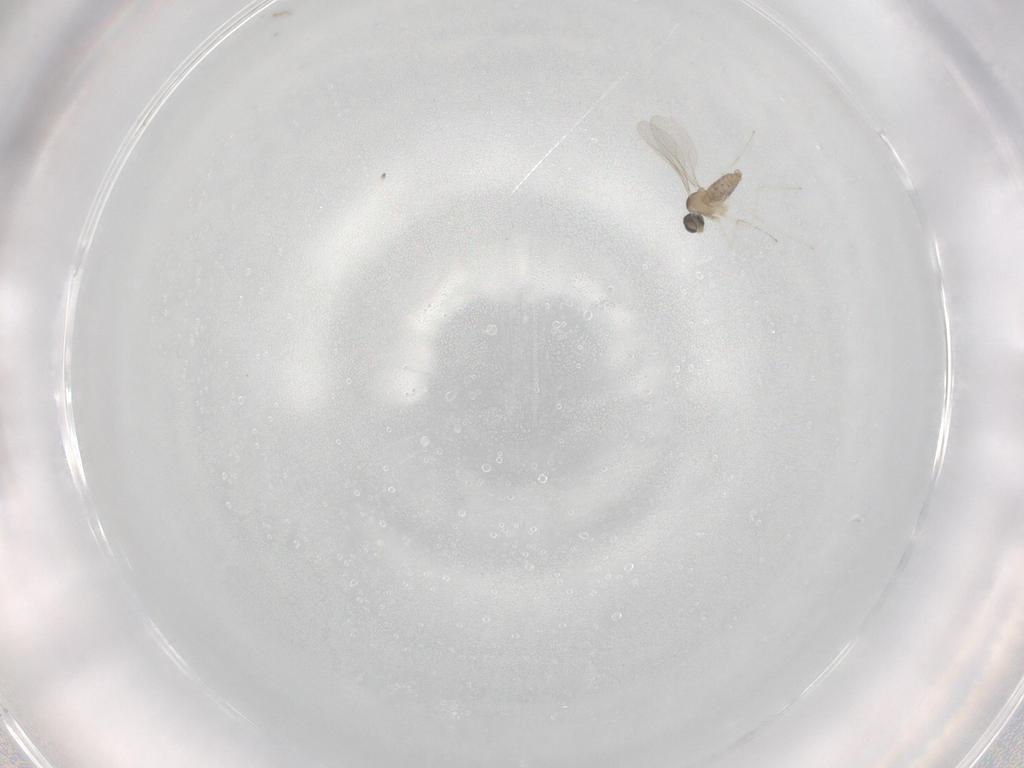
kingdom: Animalia
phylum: Arthropoda
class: Insecta
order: Diptera
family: Cecidomyiidae
